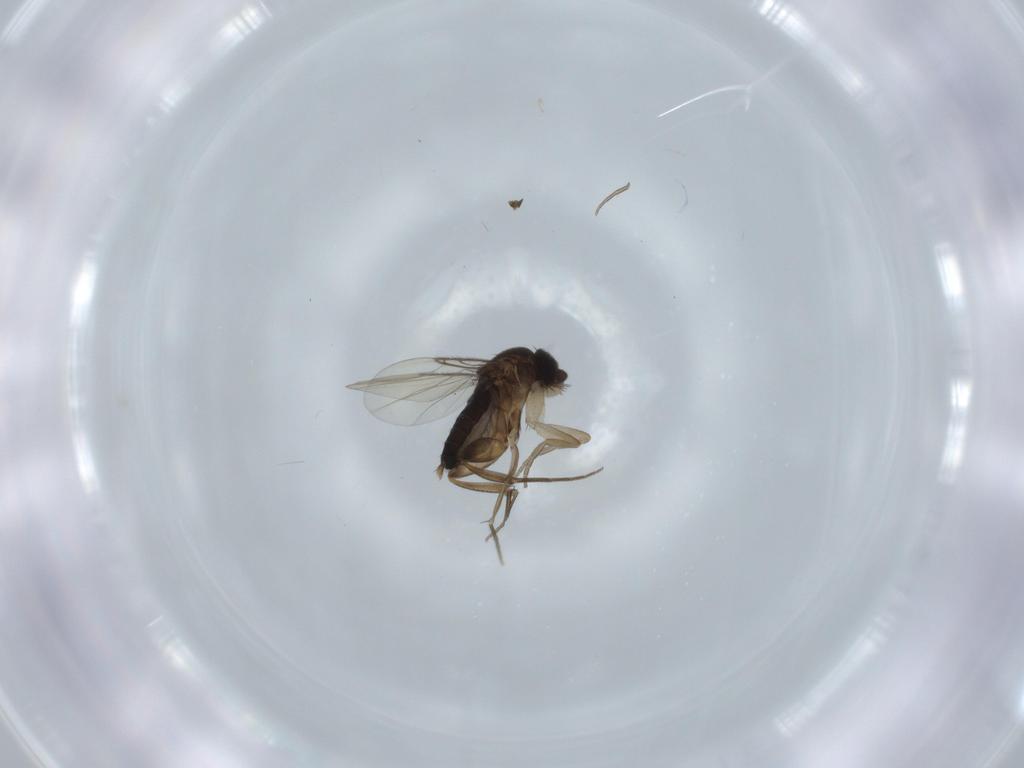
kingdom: Animalia
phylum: Arthropoda
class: Insecta
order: Diptera
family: Phoridae
